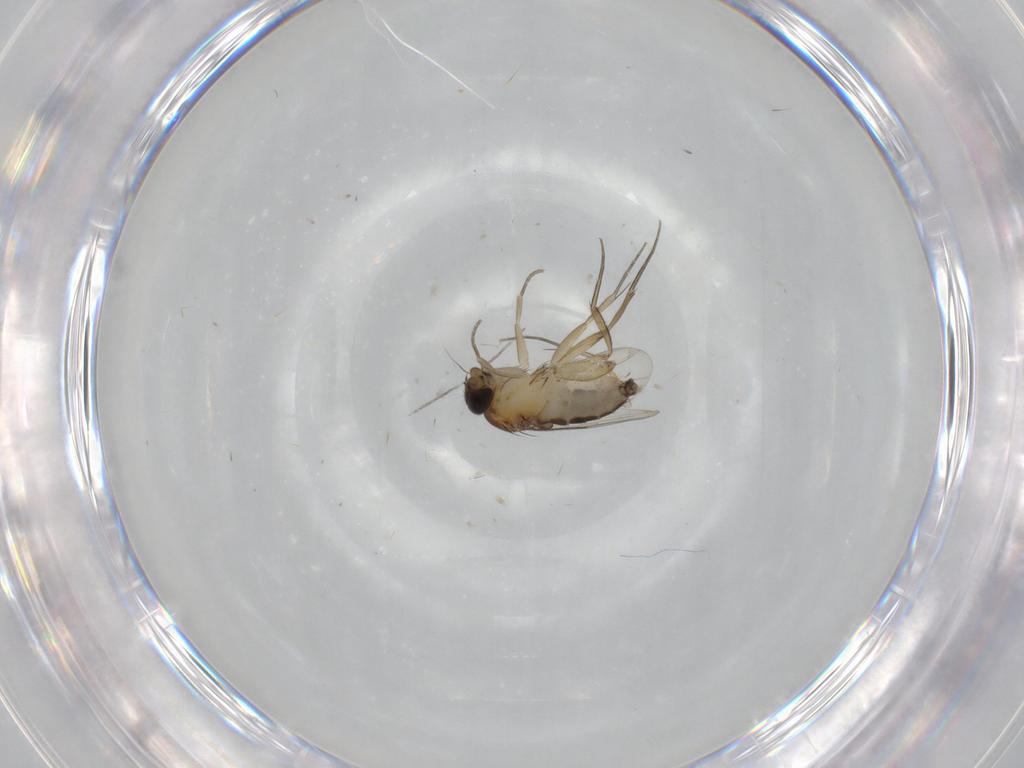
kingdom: Animalia
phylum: Arthropoda
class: Insecta
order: Diptera
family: Phoridae
